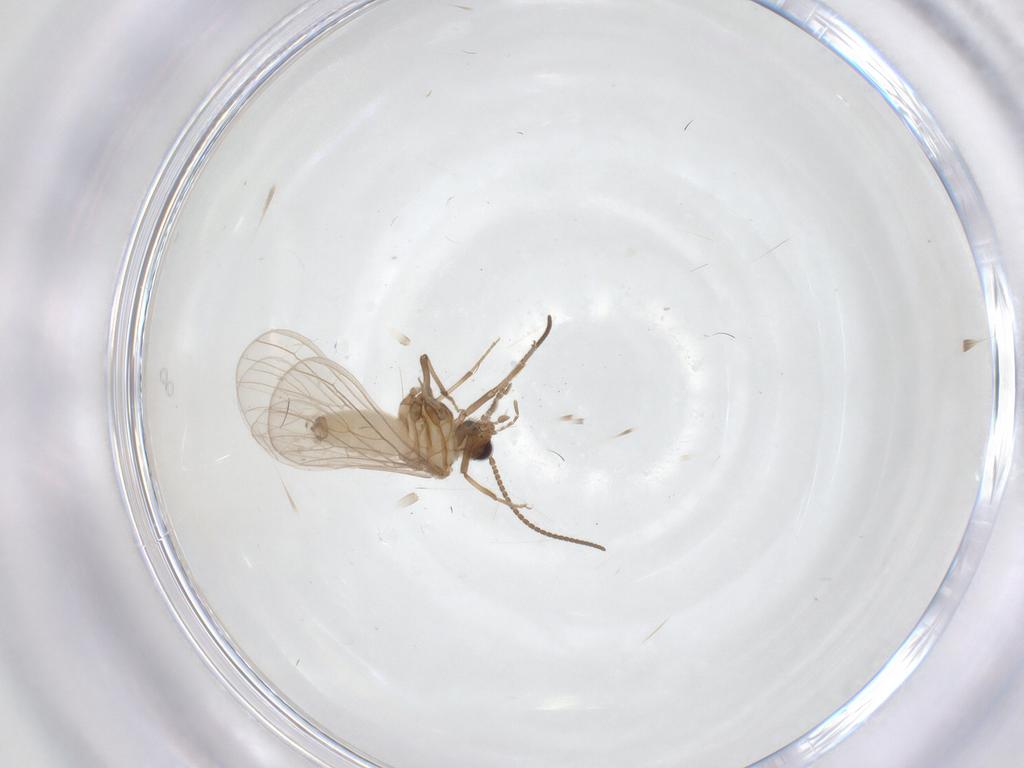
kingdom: Animalia
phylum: Arthropoda
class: Insecta
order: Neuroptera
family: Coniopterygidae
